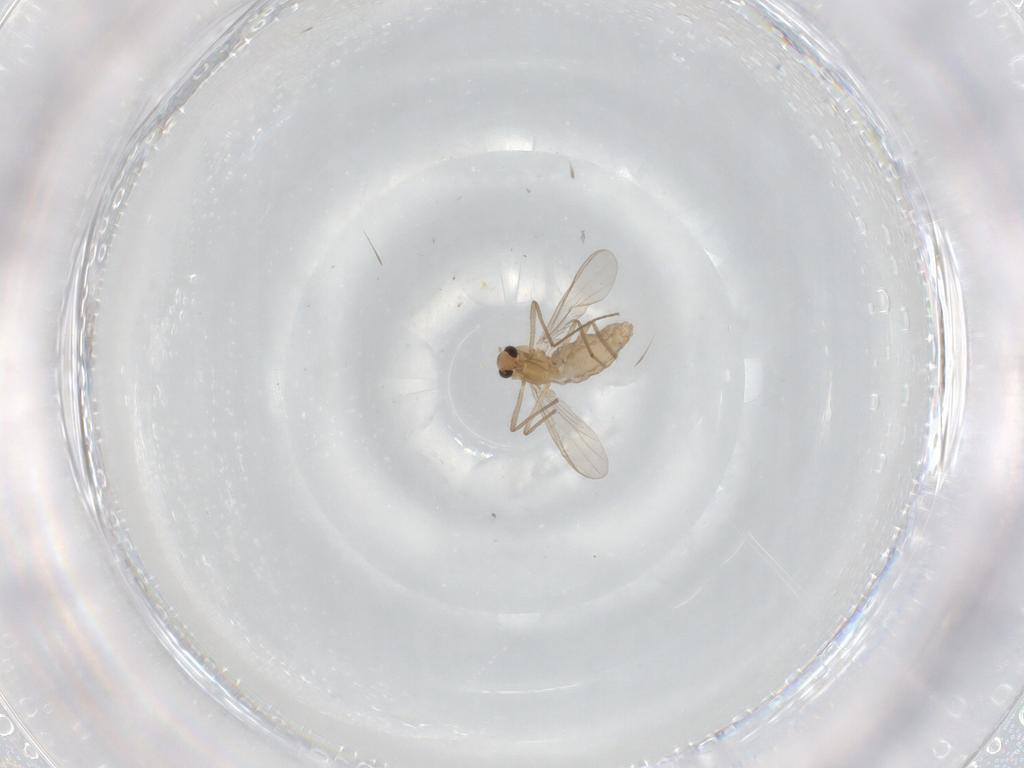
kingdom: Animalia
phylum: Arthropoda
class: Insecta
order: Diptera
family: Chironomidae
